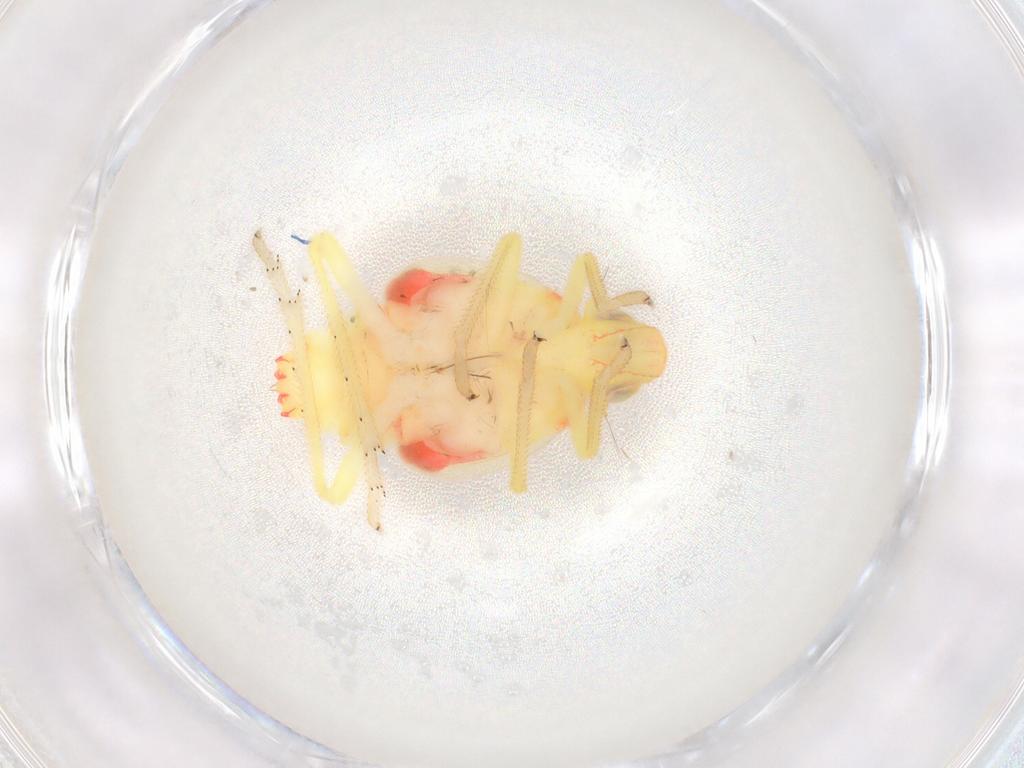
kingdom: Animalia
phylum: Arthropoda
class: Insecta
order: Hemiptera
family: Tropiduchidae
